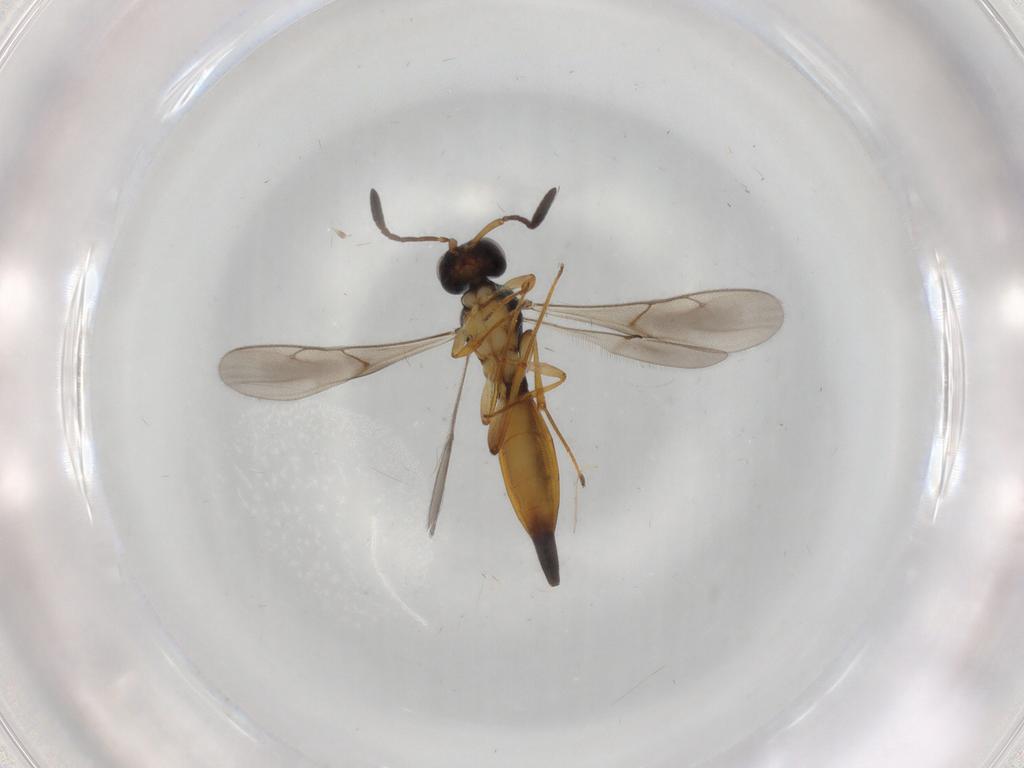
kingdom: Animalia
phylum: Arthropoda
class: Insecta
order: Hymenoptera
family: Scelionidae
